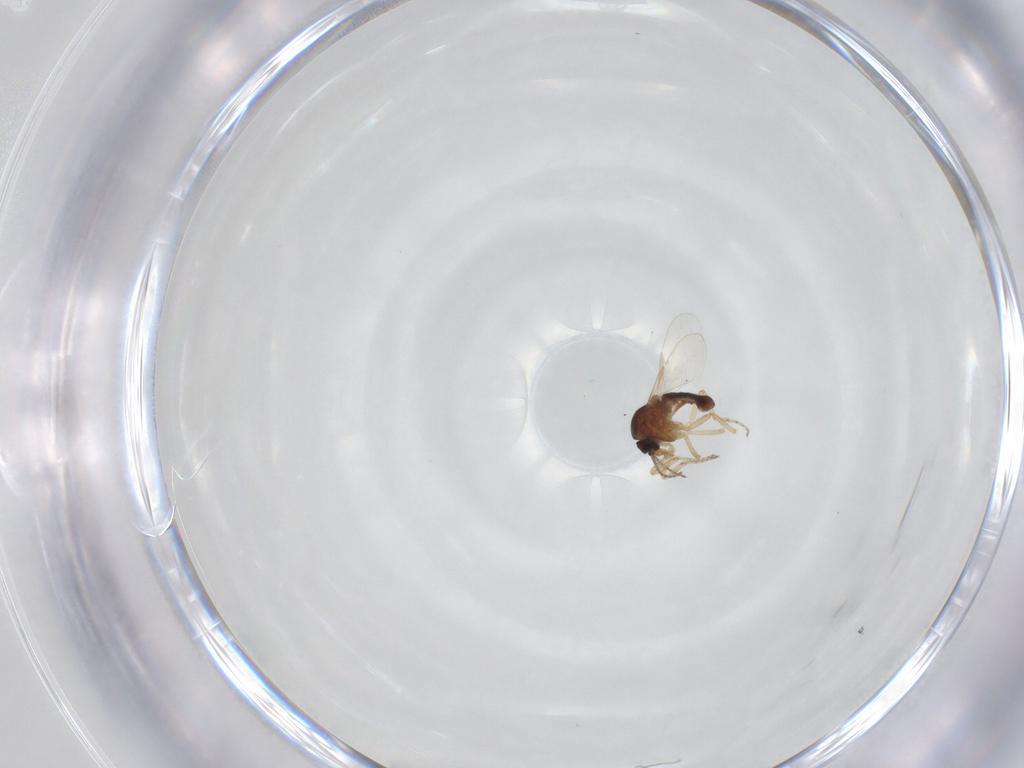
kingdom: Animalia
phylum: Arthropoda
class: Insecta
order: Diptera
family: Ceratopogonidae
